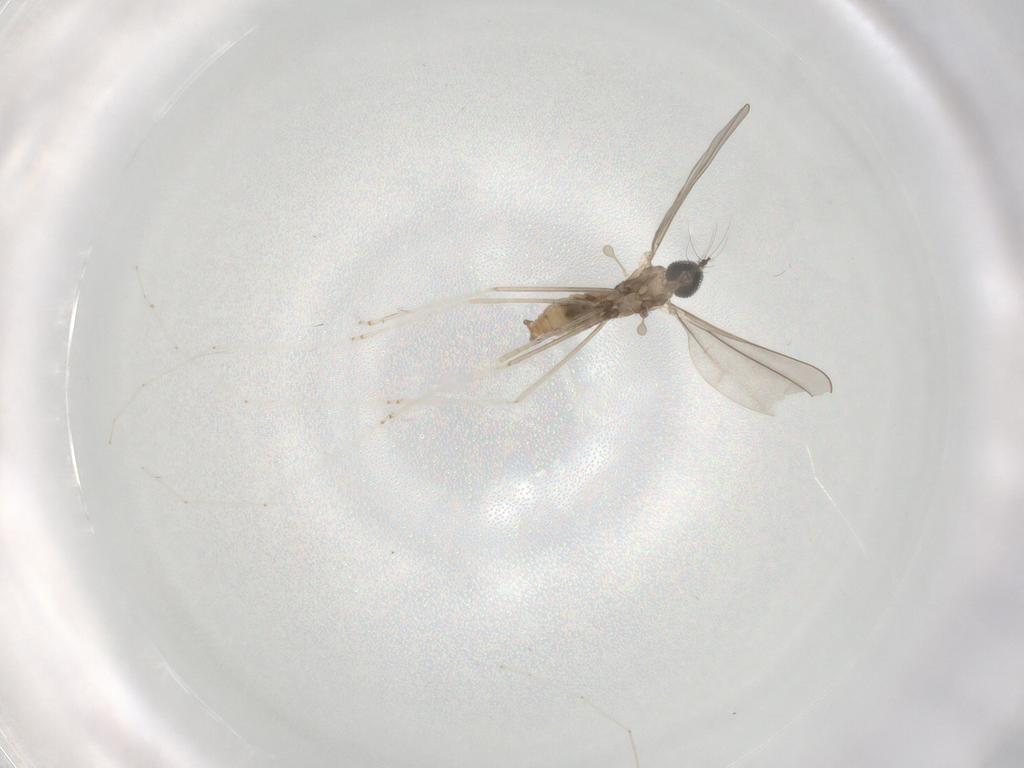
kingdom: Animalia
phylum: Arthropoda
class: Insecta
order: Diptera
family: Cecidomyiidae
